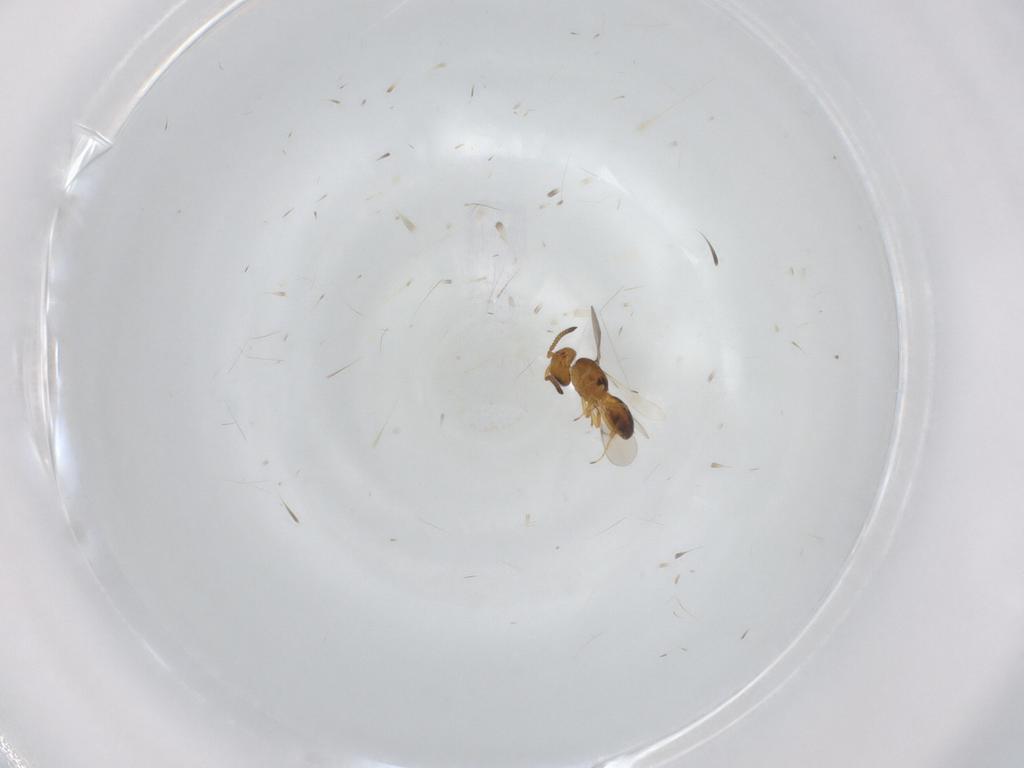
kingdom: Animalia
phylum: Arthropoda
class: Insecta
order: Hymenoptera
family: Scelionidae
